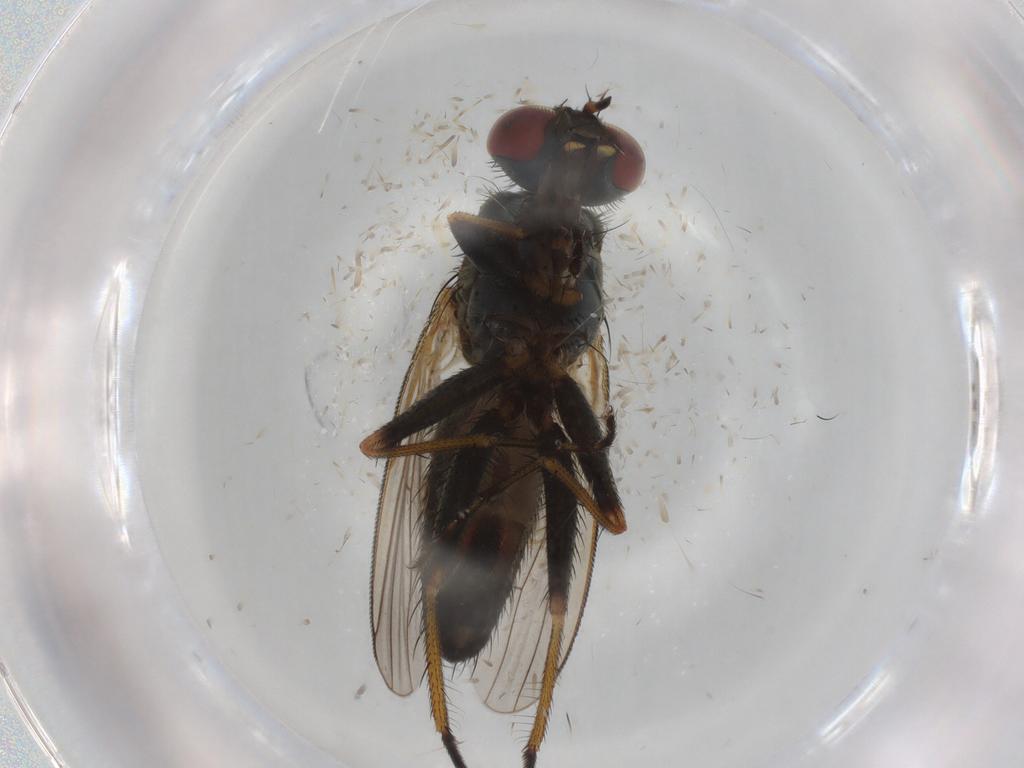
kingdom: Animalia
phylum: Arthropoda
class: Insecta
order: Diptera
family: Muscidae
